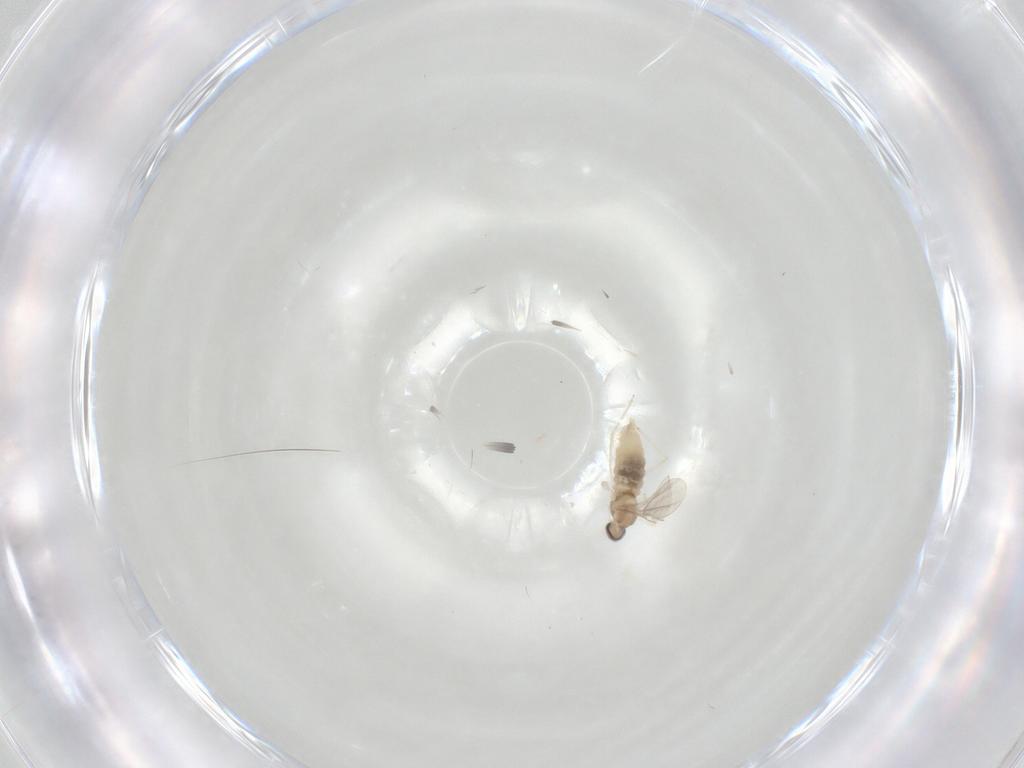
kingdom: Animalia
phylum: Arthropoda
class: Insecta
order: Diptera
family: Cecidomyiidae
